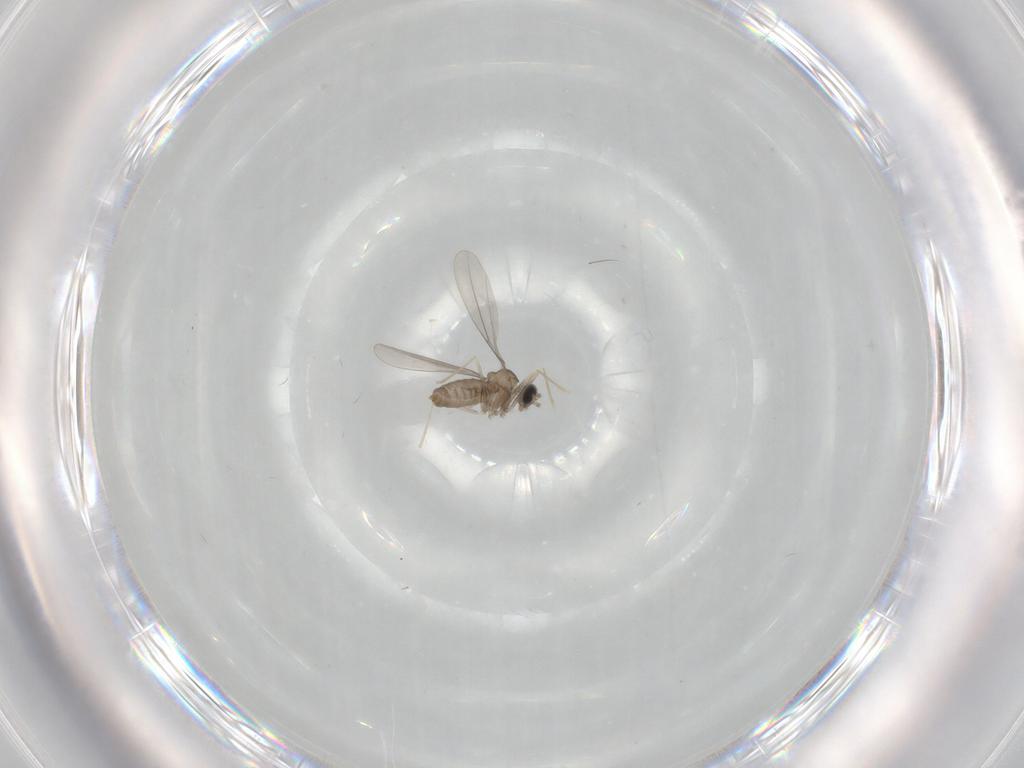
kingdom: Animalia
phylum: Arthropoda
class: Insecta
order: Diptera
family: Cecidomyiidae
